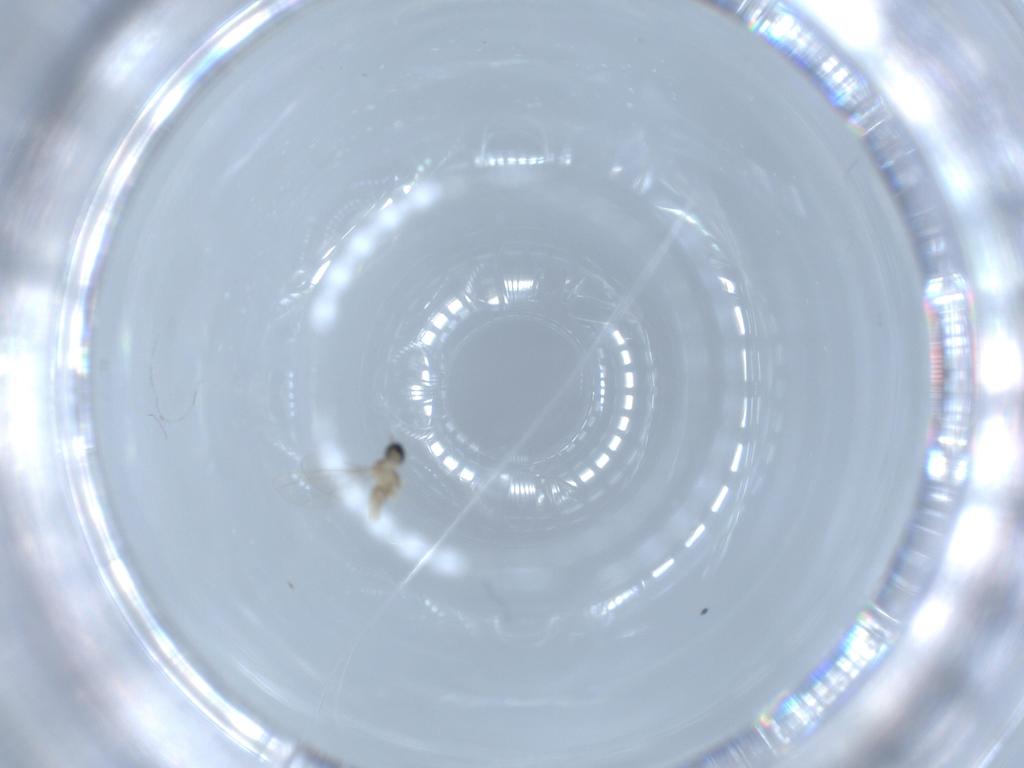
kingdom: Animalia
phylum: Arthropoda
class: Insecta
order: Diptera
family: Cecidomyiidae
